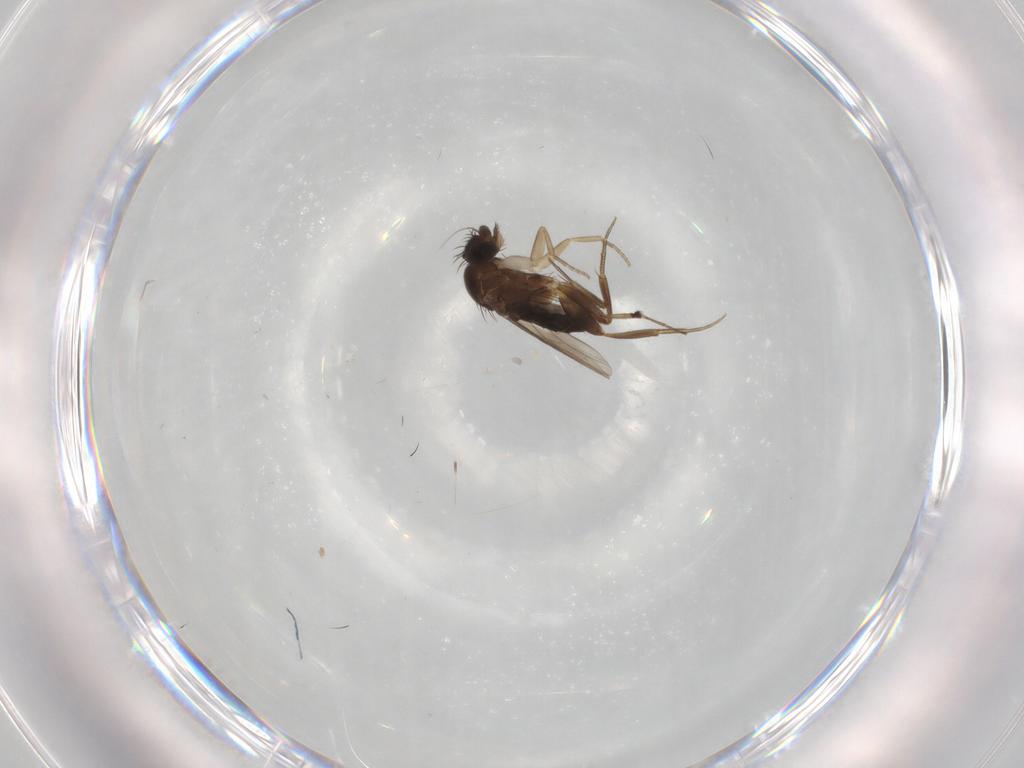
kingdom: Animalia
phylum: Arthropoda
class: Insecta
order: Diptera
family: Phoridae
